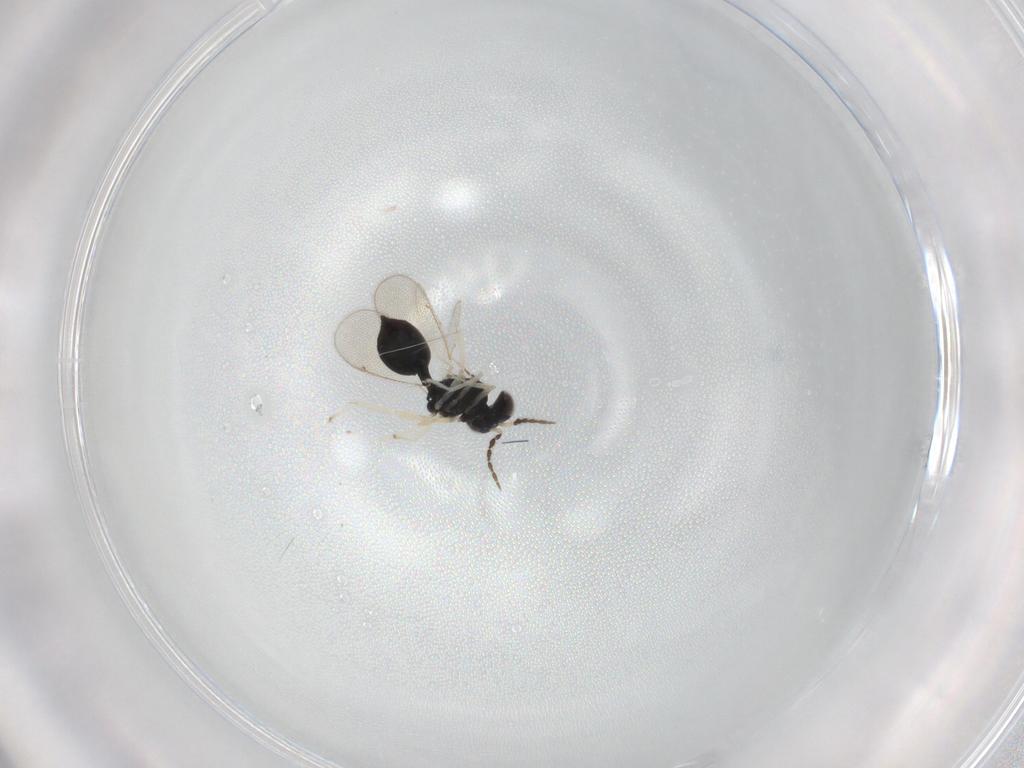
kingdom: Animalia
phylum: Arthropoda
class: Insecta
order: Hymenoptera
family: Eulophidae
